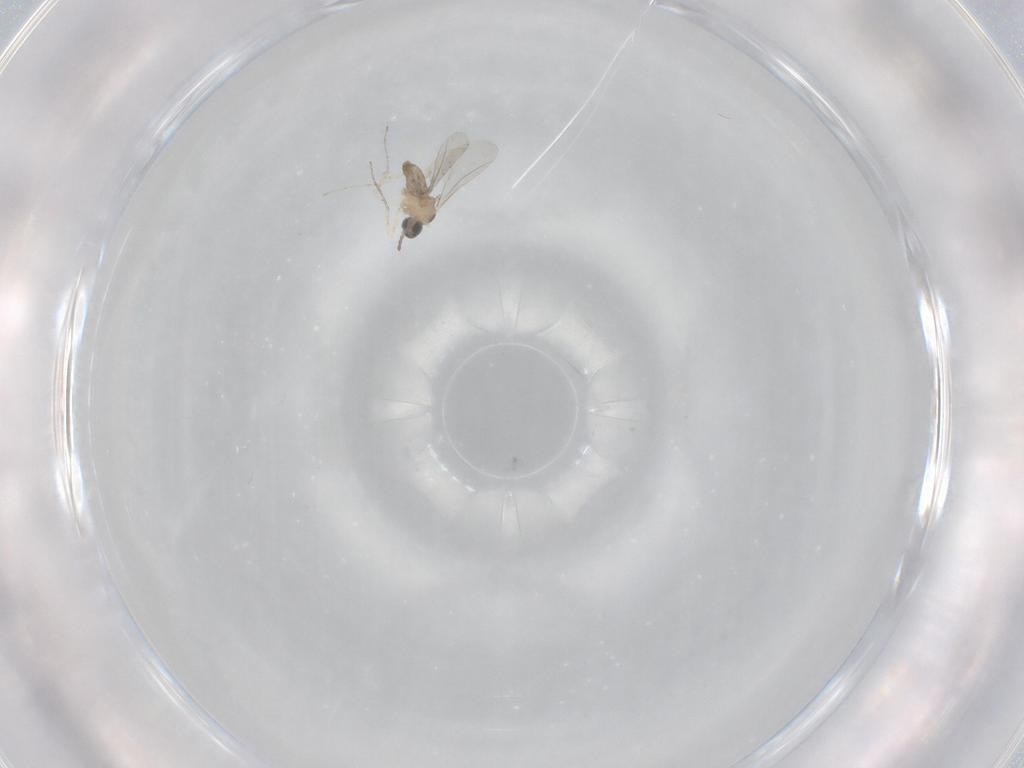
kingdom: Animalia
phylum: Arthropoda
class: Insecta
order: Diptera
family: Cecidomyiidae
